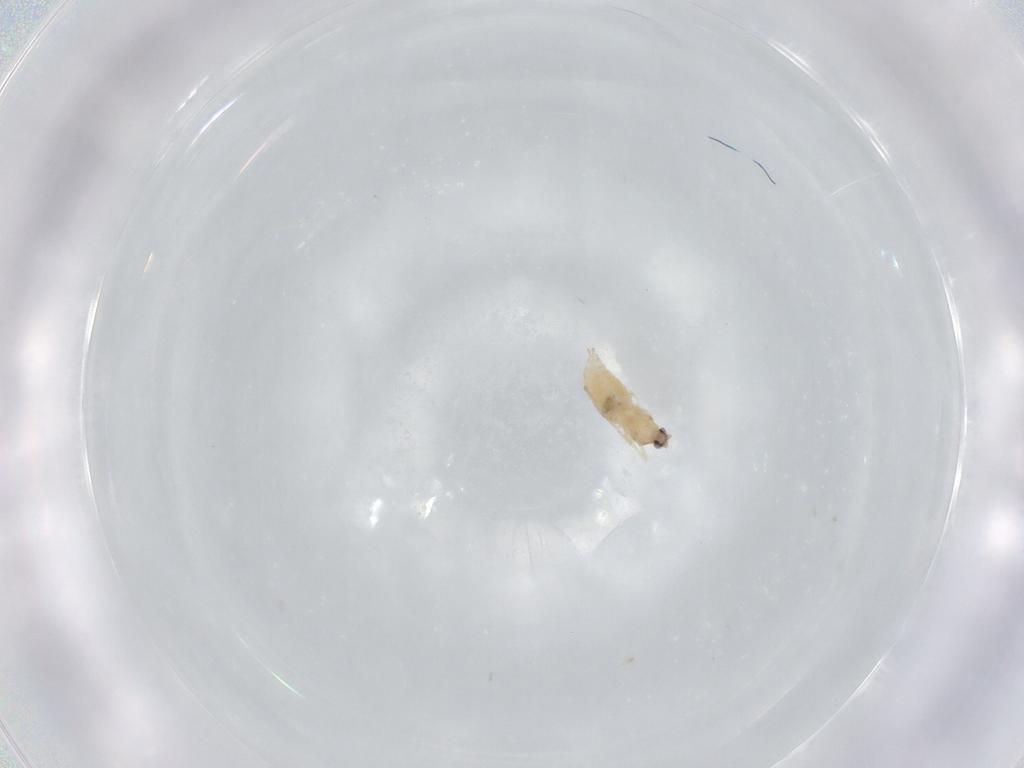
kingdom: Animalia
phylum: Arthropoda
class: Insecta
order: Diptera
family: Cecidomyiidae
